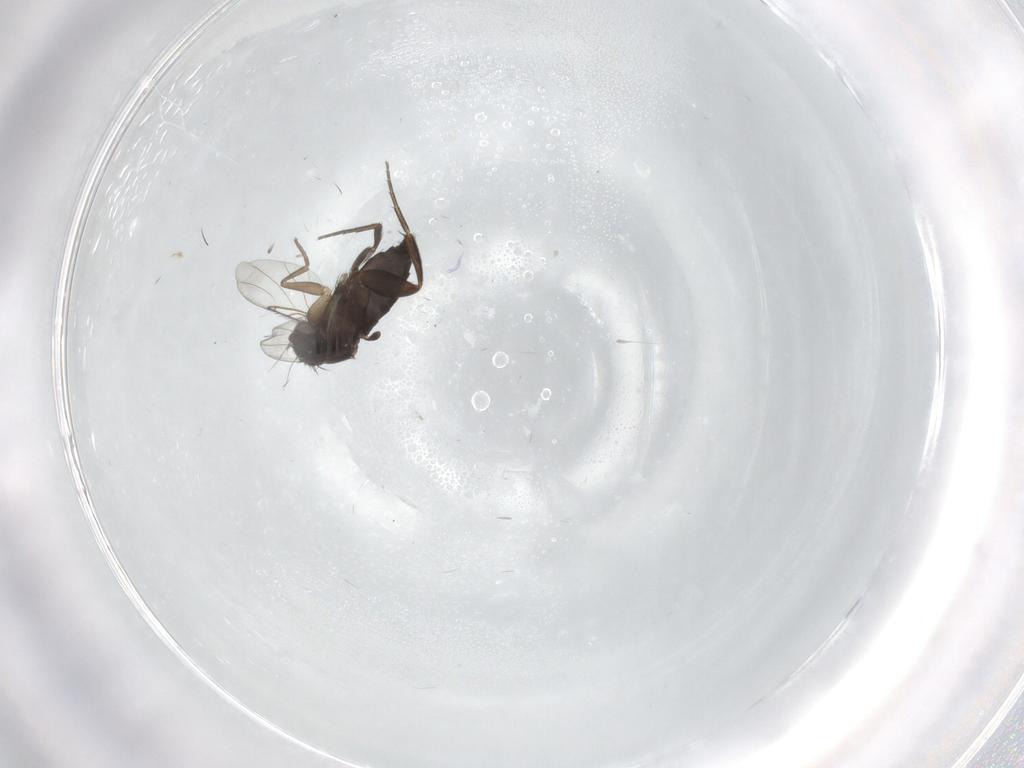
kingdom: Animalia
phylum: Arthropoda
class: Insecta
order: Diptera
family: Phoridae
